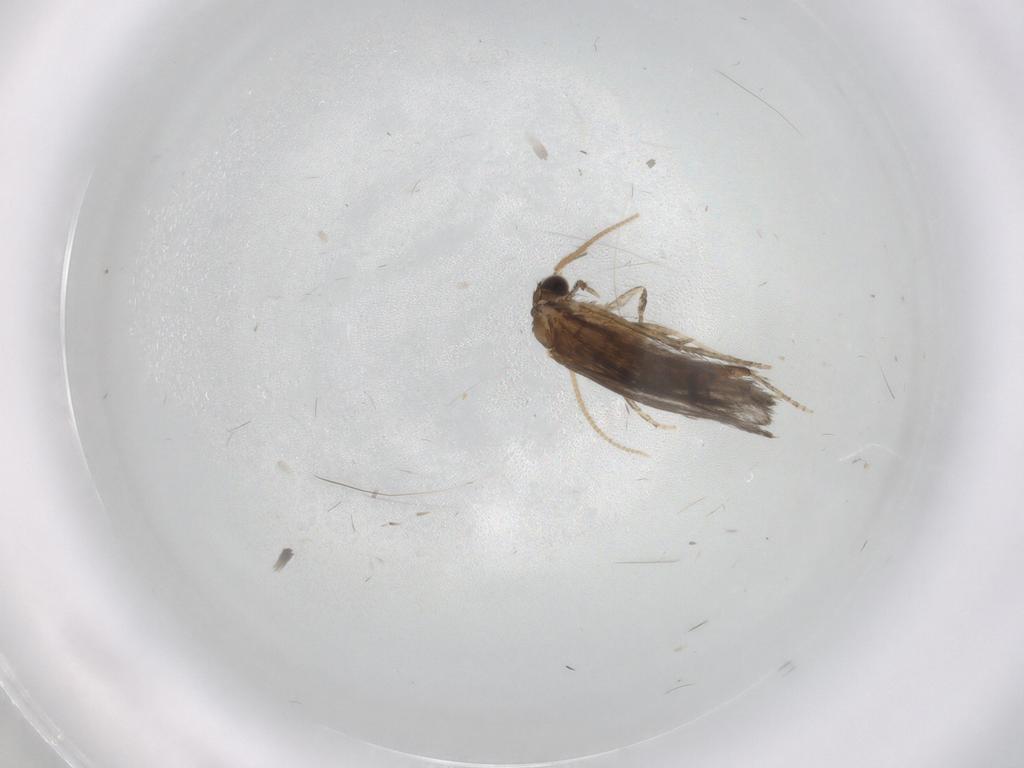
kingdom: Animalia
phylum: Arthropoda
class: Insecta
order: Trichoptera
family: Hydroptilidae
